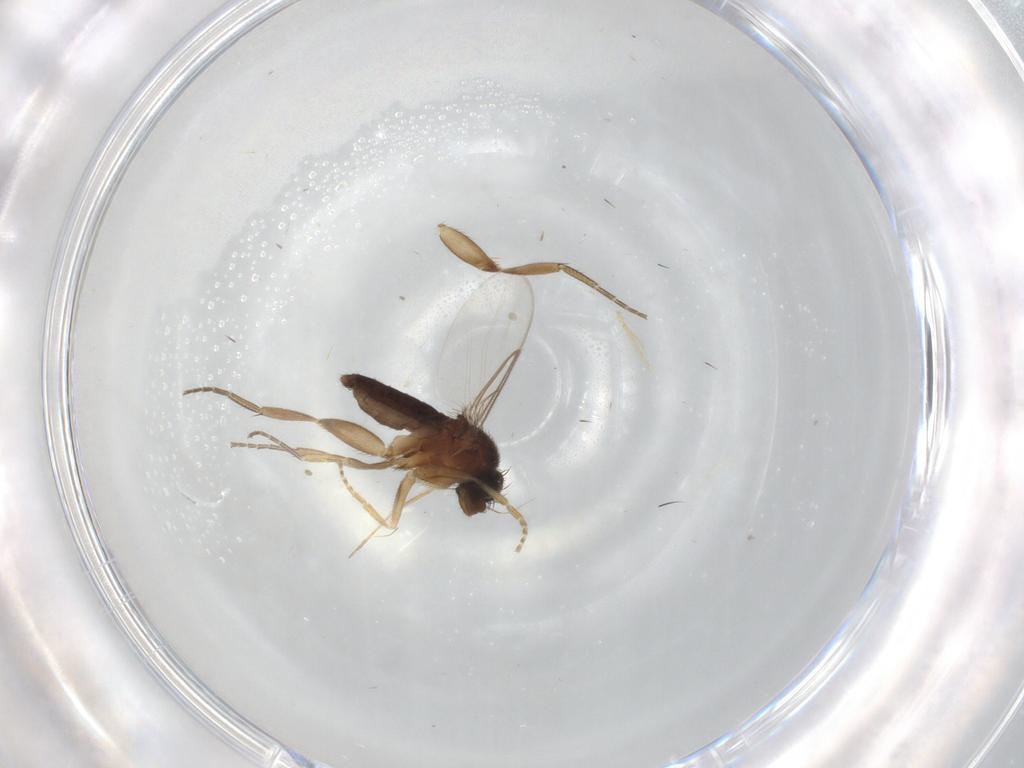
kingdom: Animalia
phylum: Arthropoda
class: Insecta
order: Diptera
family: Phoridae
